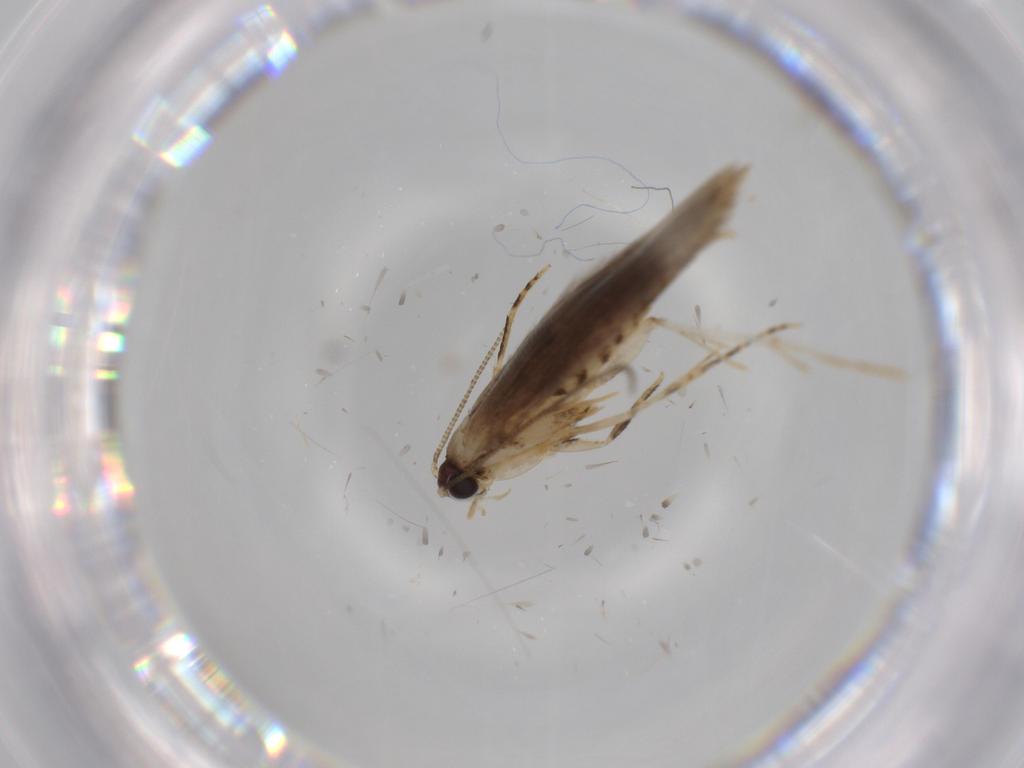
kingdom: Animalia
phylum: Arthropoda
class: Insecta
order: Lepidoptera
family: Tineidae
